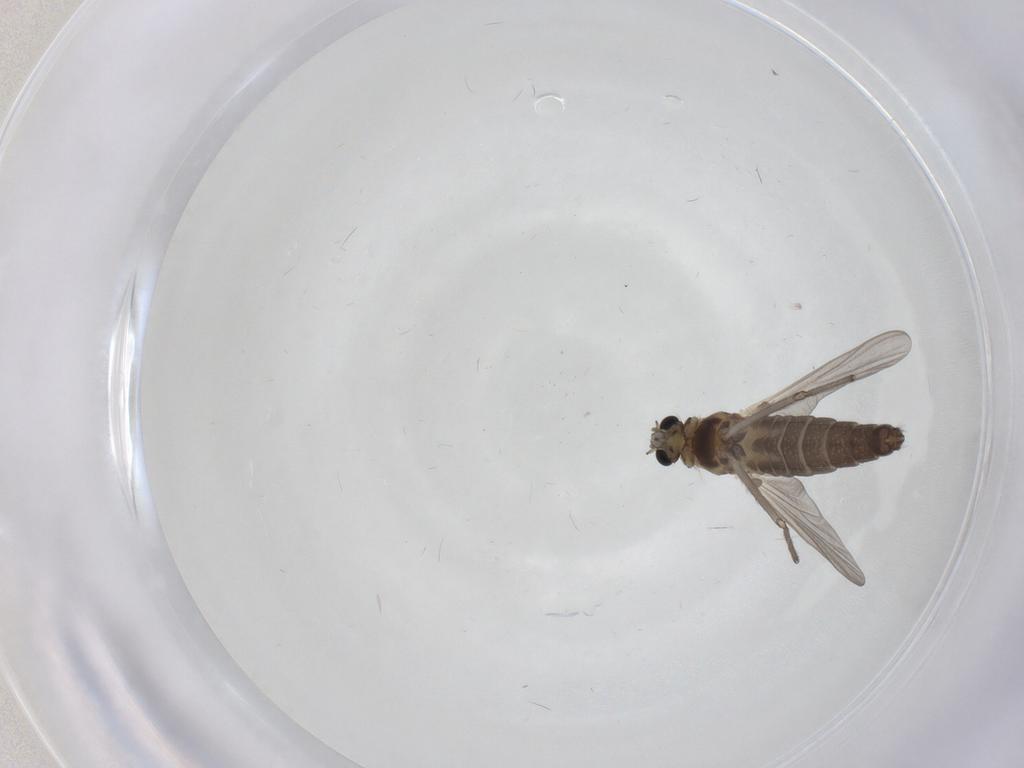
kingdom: Animalia
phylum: Arthropoda
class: Insecta
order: Diptera
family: Chironomidae
